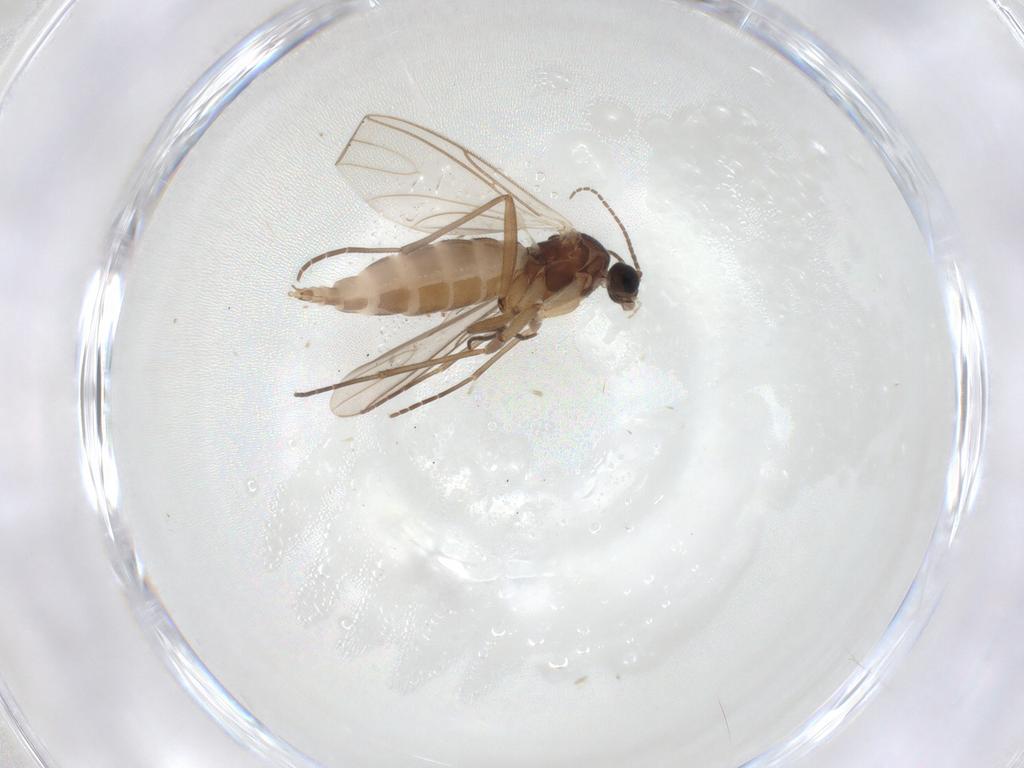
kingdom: Animalia
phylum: Arthropoda
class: Insecta
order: Diptera
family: Sciaridae
